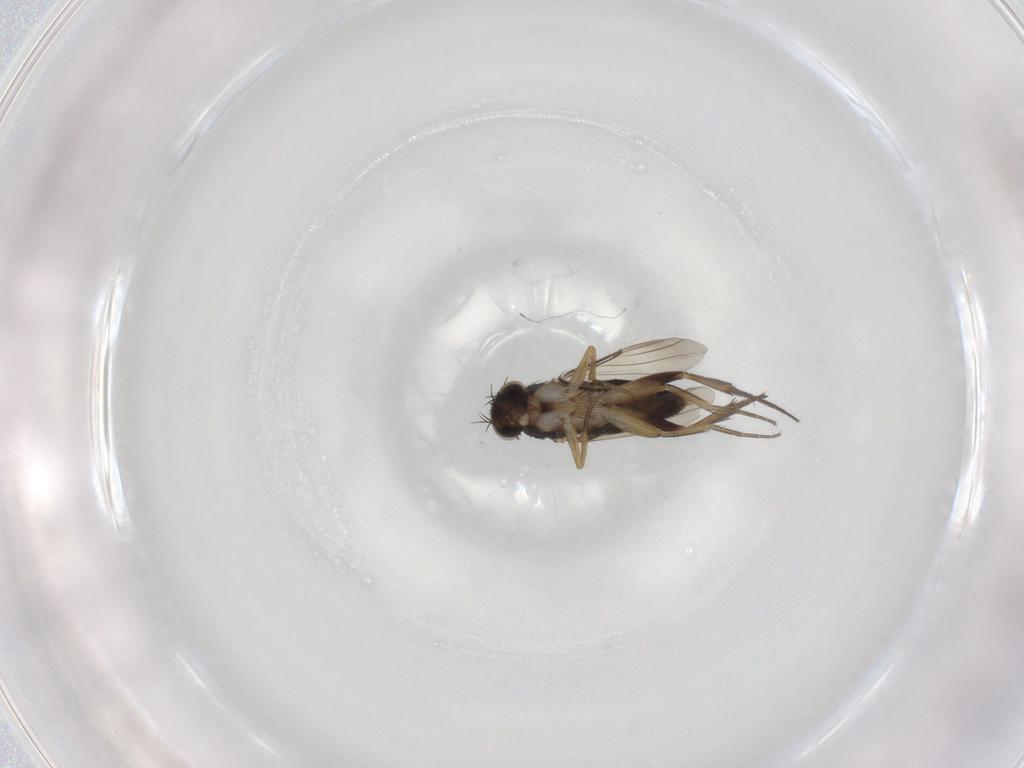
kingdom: Animalia
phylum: Arthropoda
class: Insecta
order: Diptera
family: Phoridae
